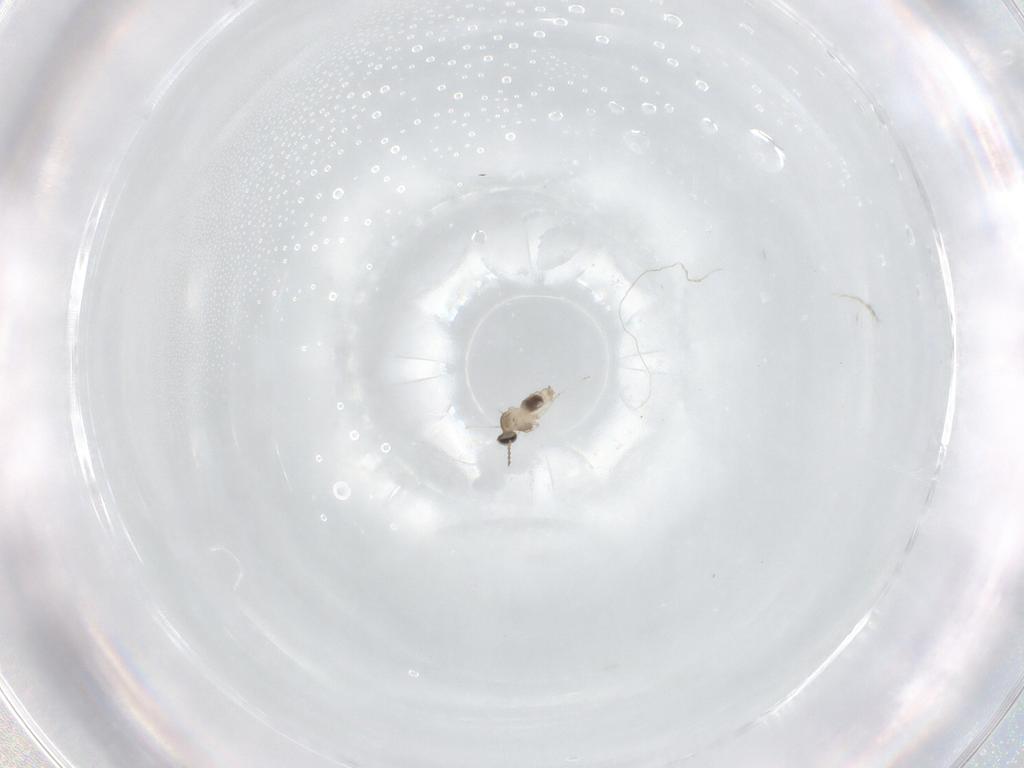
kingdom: Animalia
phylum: Arthropoda
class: Insecta
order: Diptera
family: Cecidomyiidae
